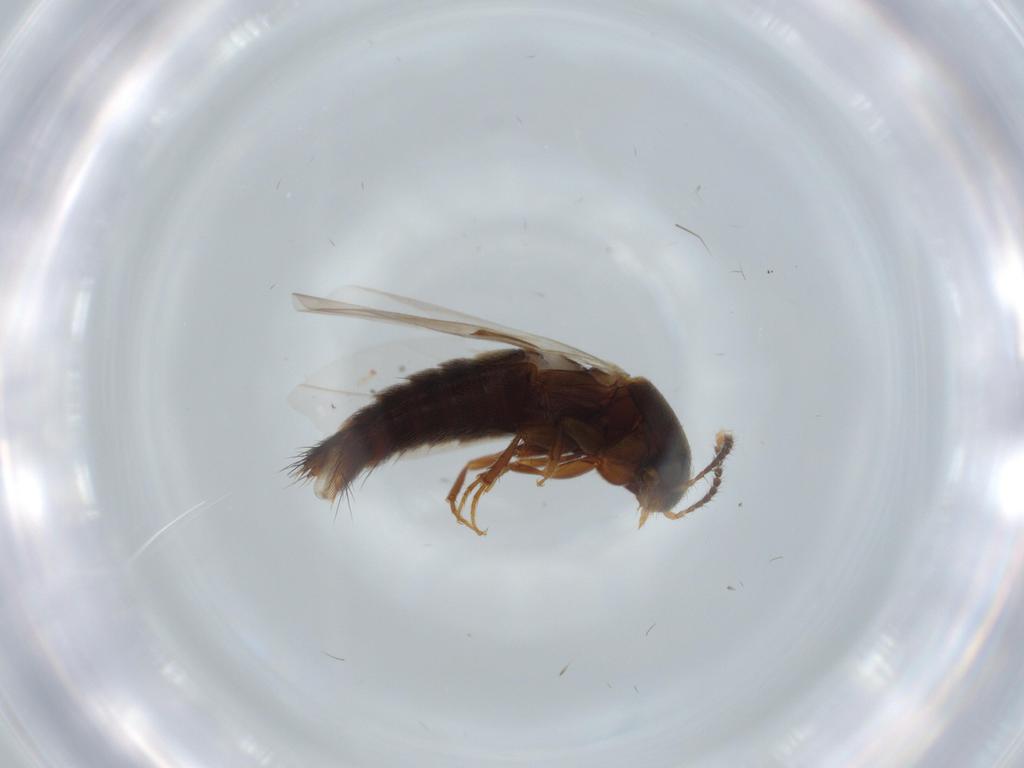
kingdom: Animalia
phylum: Arthropoda
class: Insecta
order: Coleoptera
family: Staphylinidae
